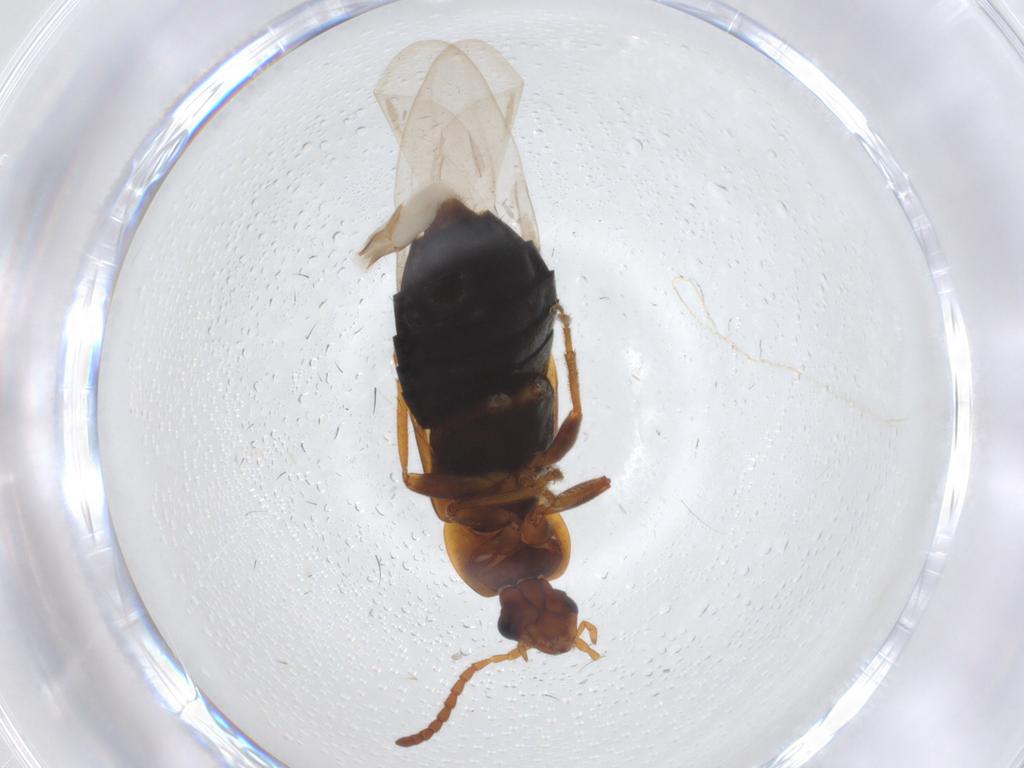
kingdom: Animalia
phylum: Arthropoda
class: Insecta
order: Coleoptera
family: Staphylinidae
